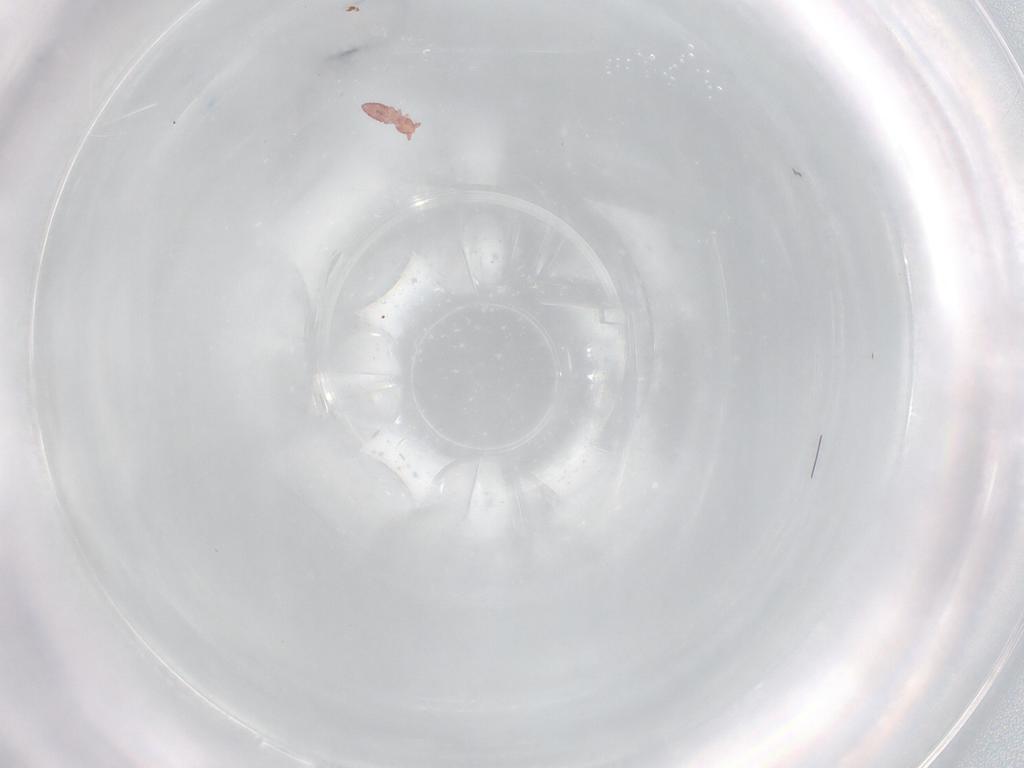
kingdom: Animalia
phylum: Arthropoda
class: Collembola
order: Poduromorpha
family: Hypogastruridae
